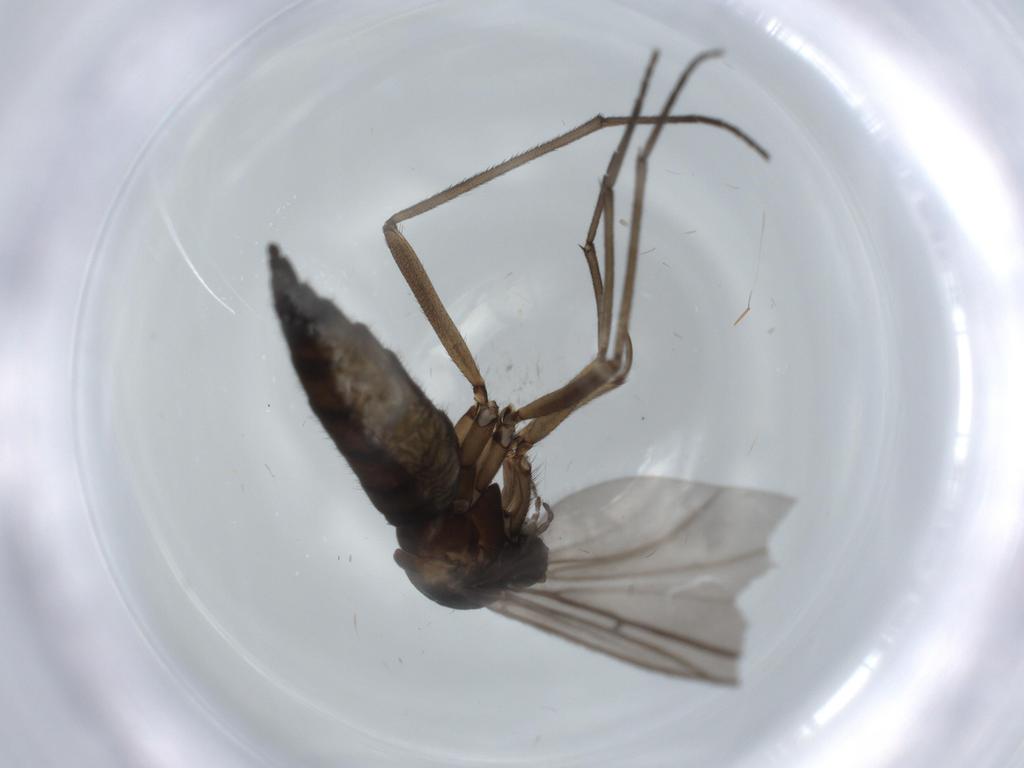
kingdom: Animalia
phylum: Arthropoda
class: Insecta
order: Diptera
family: Sciaridae
